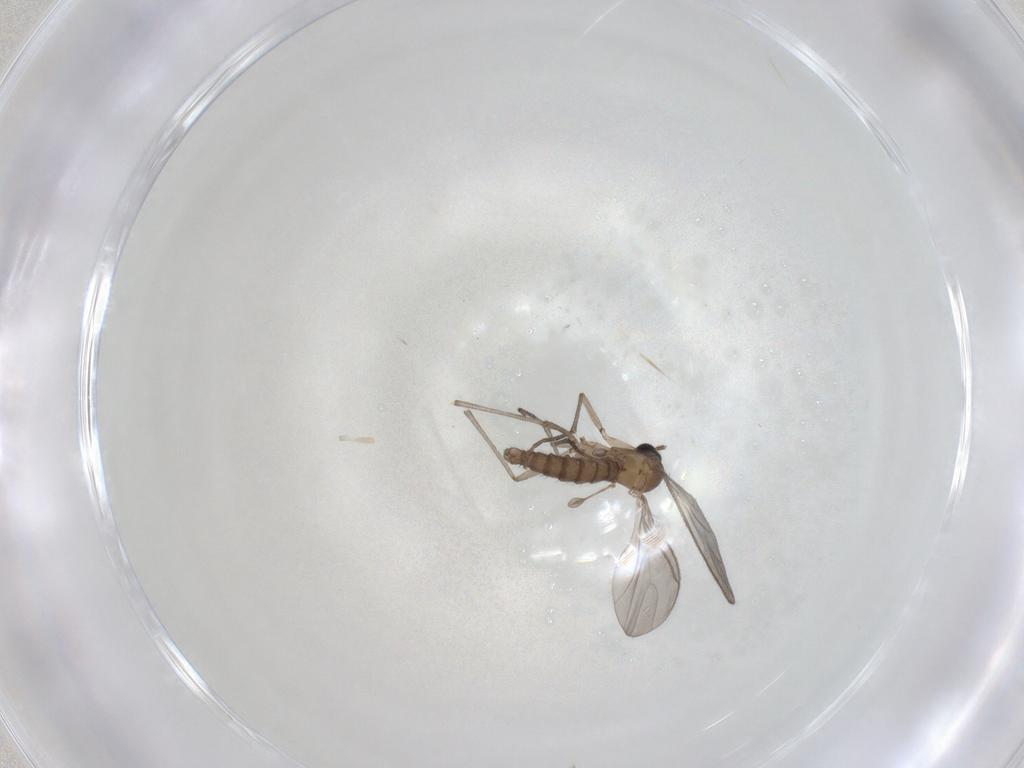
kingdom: Animalia
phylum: Arthropoda
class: Insecta
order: Diptera
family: Sciaridae
